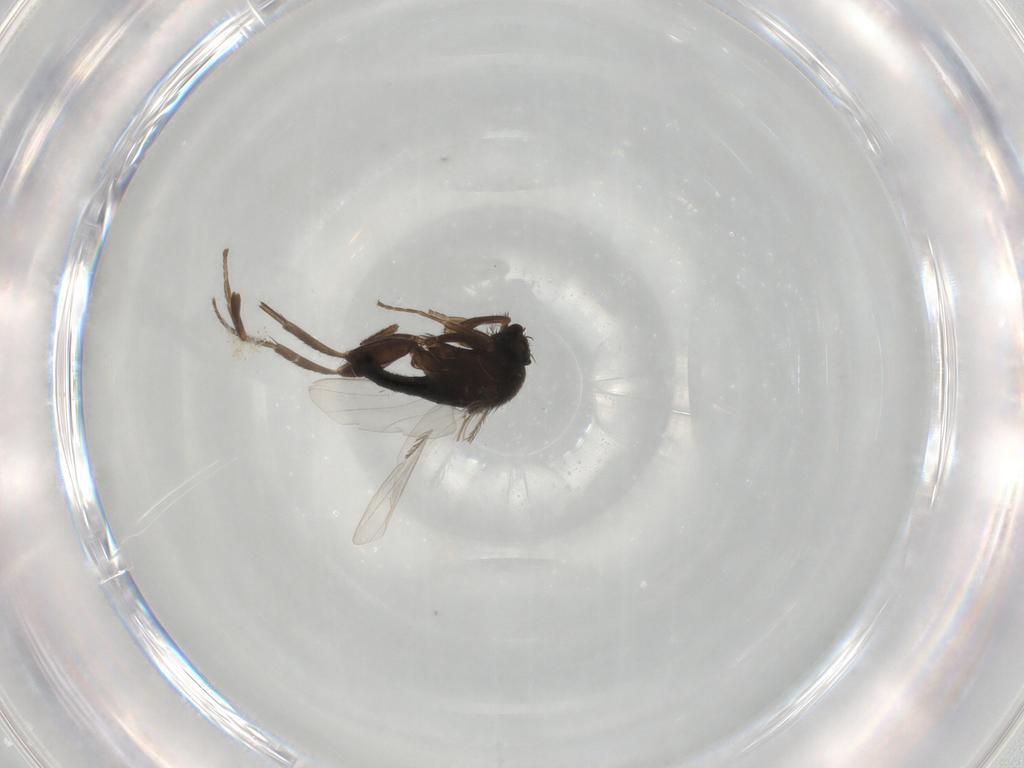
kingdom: Animalia
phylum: Arthropoda
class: Insecta
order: Diptera
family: Phoridae
